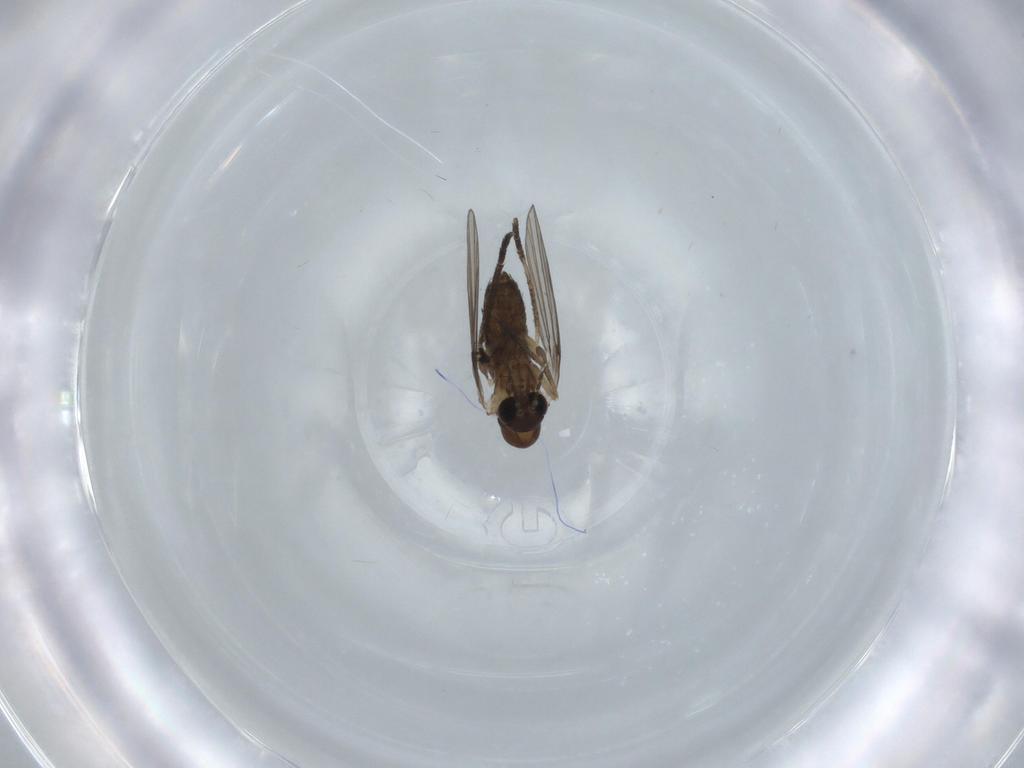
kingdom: Animalia
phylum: Arthropoda
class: Insecta
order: Diptera
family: Psychodidae
